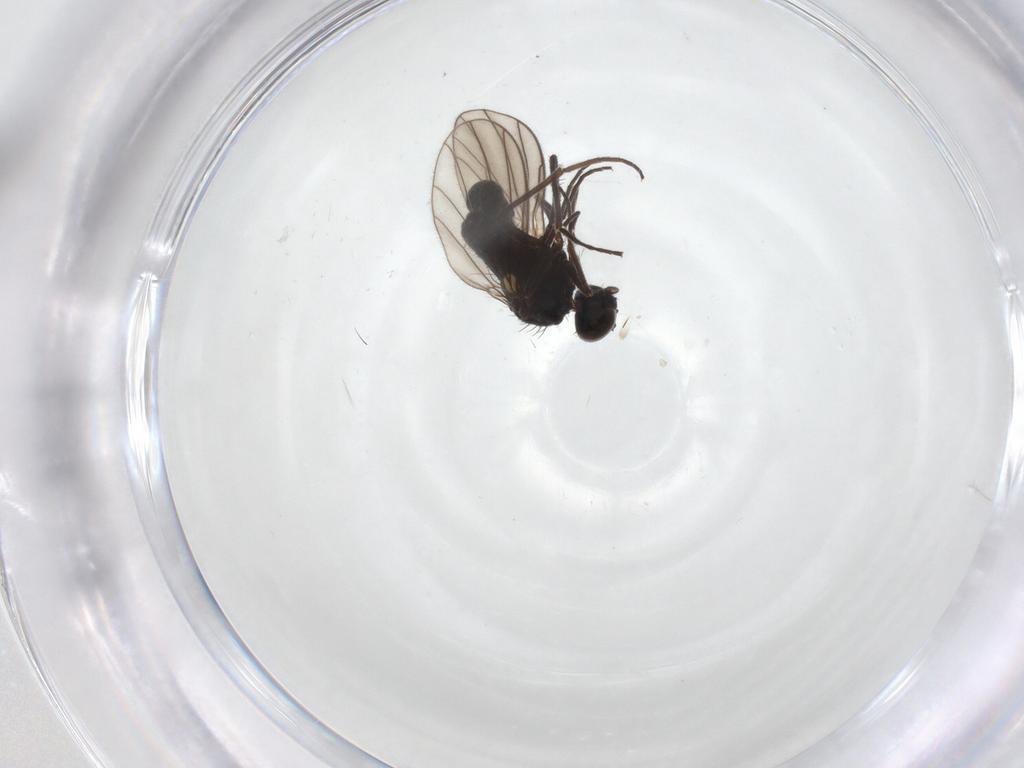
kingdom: Animalia
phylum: Arthropoda
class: Insecta
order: Diptera
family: Dolichopodidae
